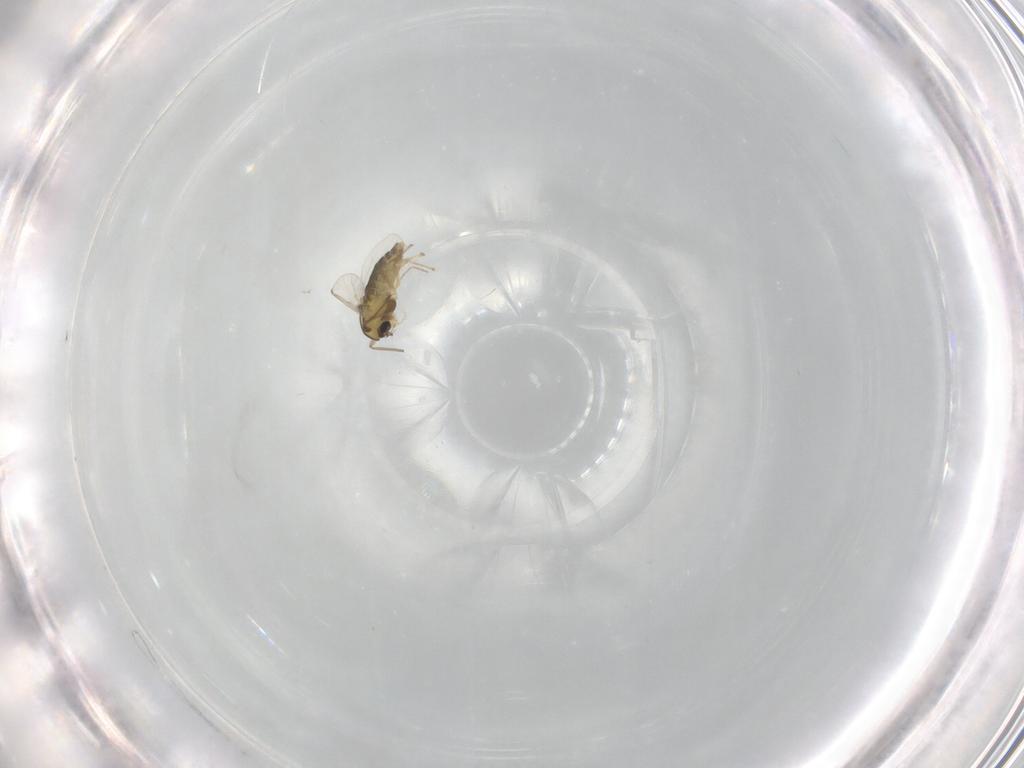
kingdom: Animalia
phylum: Arthropoda
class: Insecta
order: Diptera
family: Chironomidae
